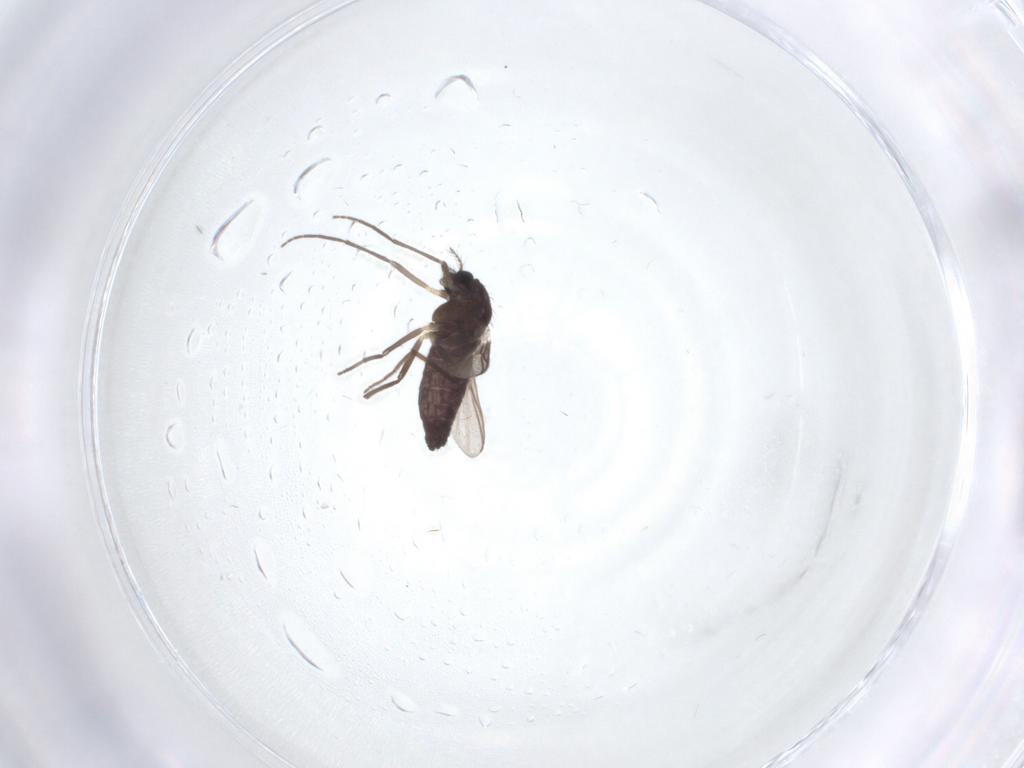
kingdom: Animalia
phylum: Arthropoda
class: Insecta
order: Diptera
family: Chironomidae
